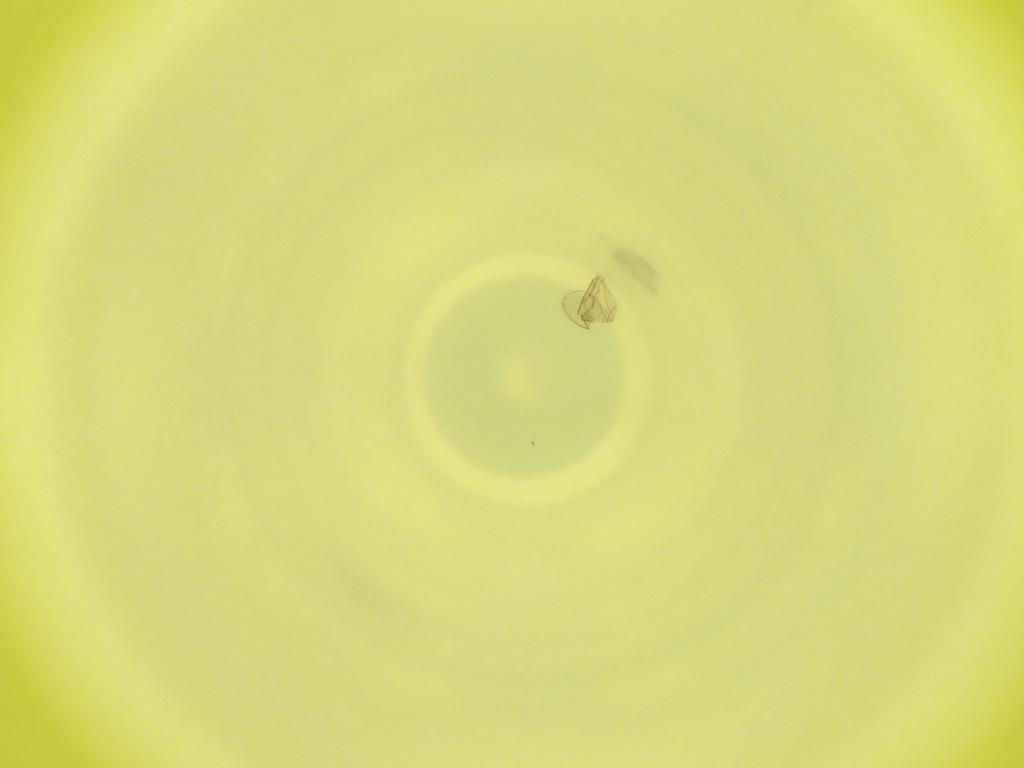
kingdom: Animalia
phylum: Arthropoda
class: Insecta
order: Diptera
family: Cecidomyiidae
